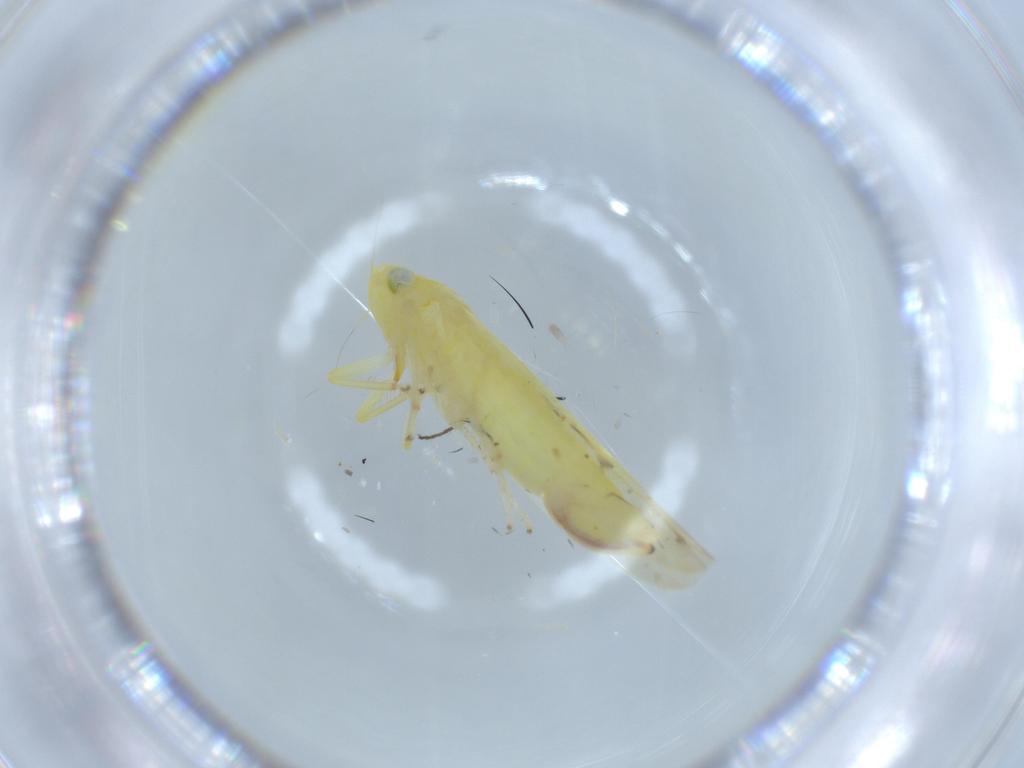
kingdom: Animalia
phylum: Arthropoda
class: Insecta
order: Hemiptera
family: Cicadellidae
